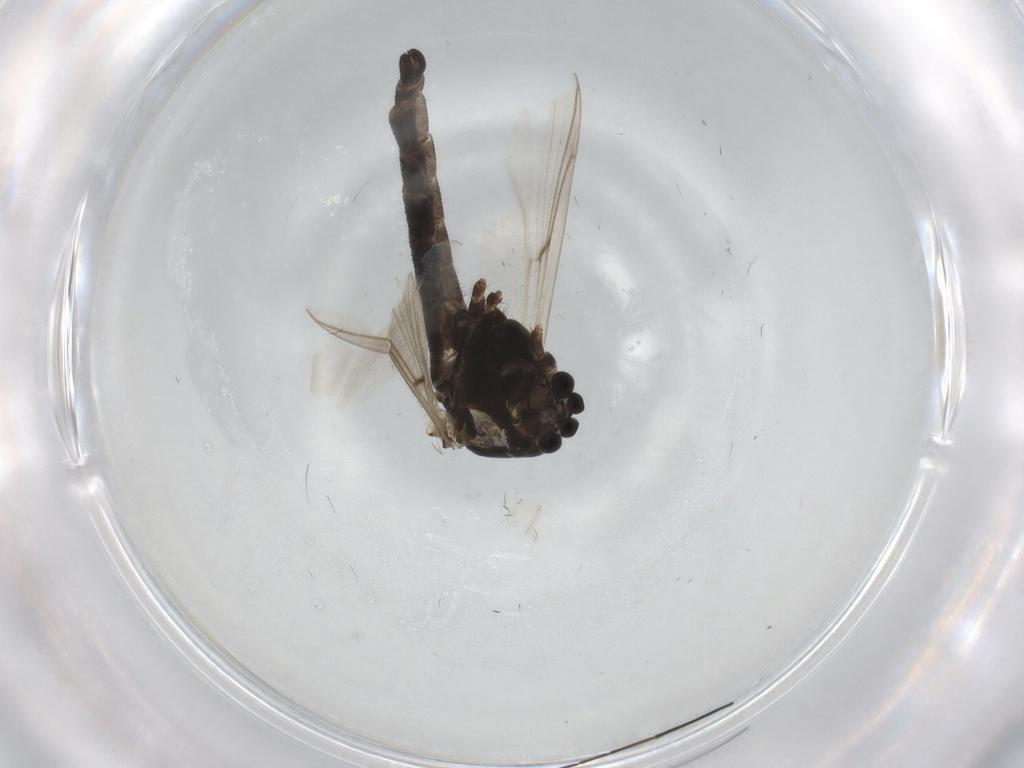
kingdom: Animalia
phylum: Arthropoda
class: Insecta
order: Diptera
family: Chironomidae
